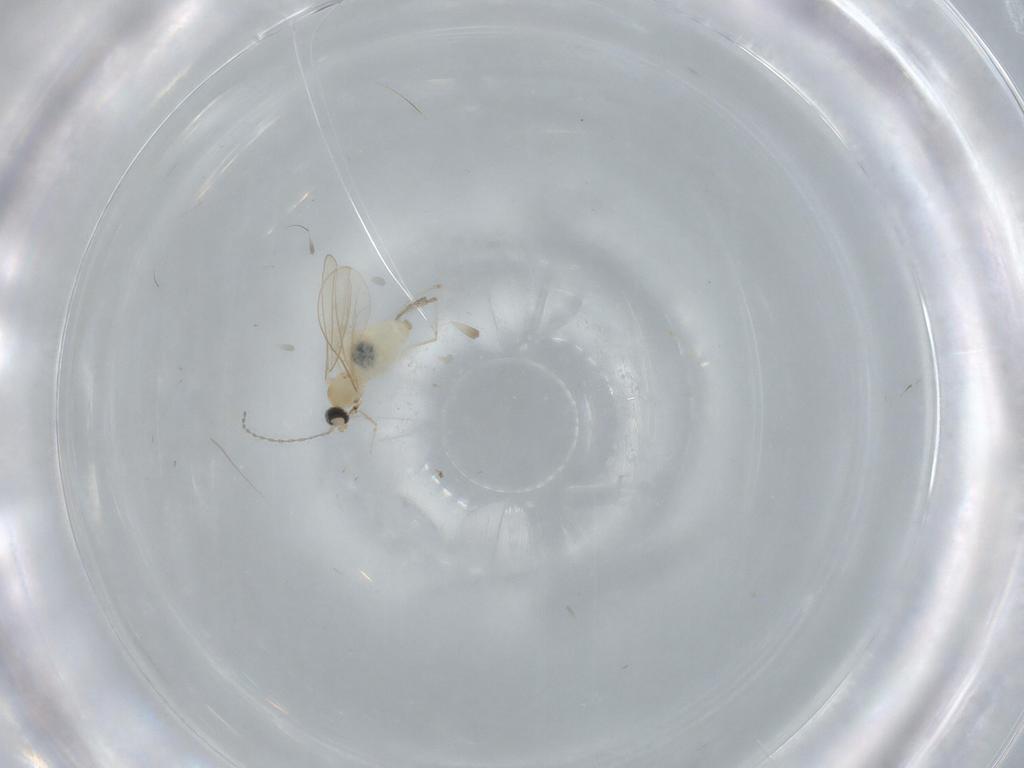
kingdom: Animalia
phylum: Arthropoda
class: Insecta
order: Diptera
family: Cecidomyiidae
